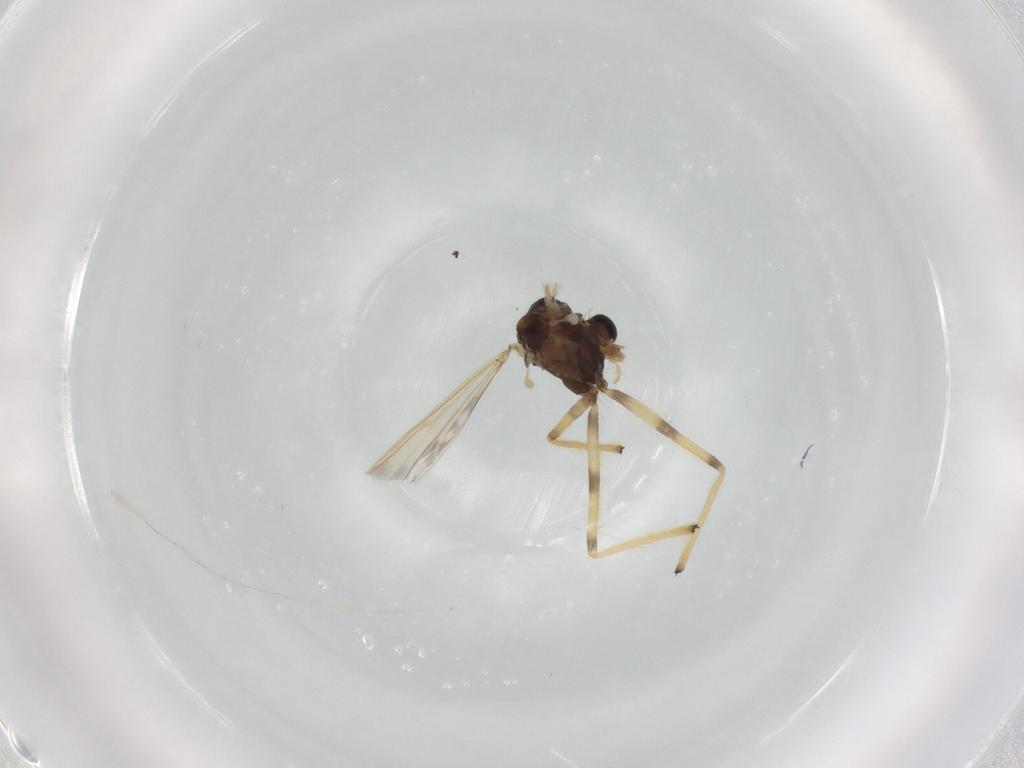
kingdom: Animalia
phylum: Arthropoda
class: Insecta
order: Diptera
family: Chironomidae
